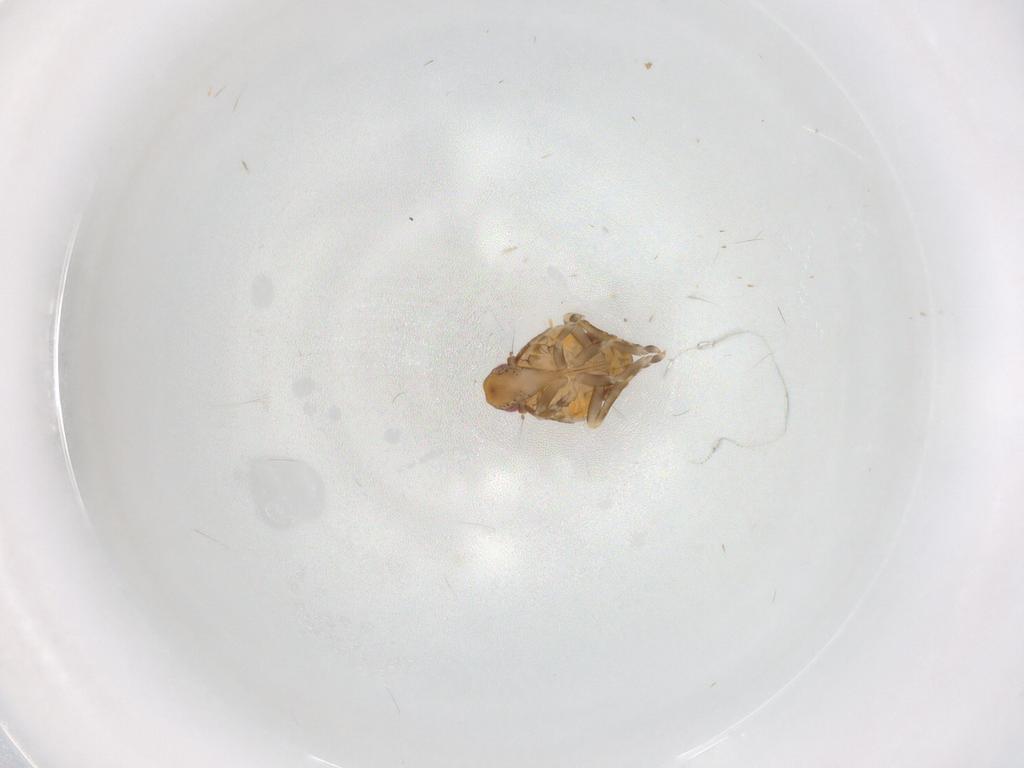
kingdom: Animalia
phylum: Arthropoda
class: Insecta
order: Hemiptera
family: Flatidae
